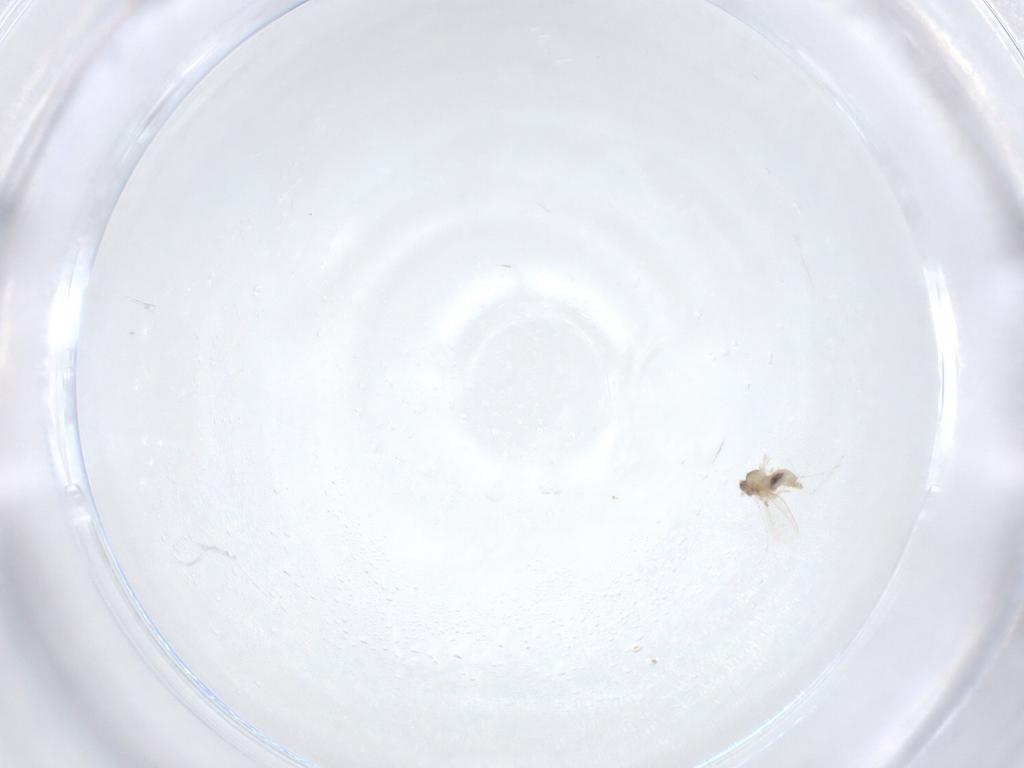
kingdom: Animalia
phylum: Arthropoda
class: Insecta
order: Diptera
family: Cecidomyiidae
